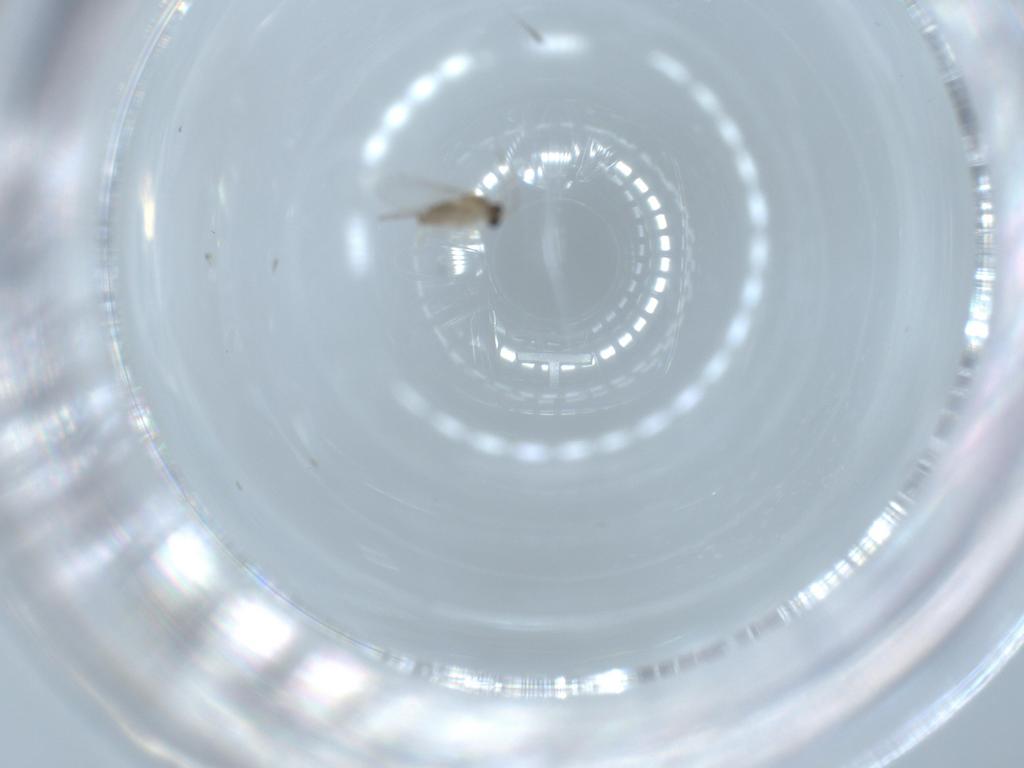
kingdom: Animalia
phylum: Arthropoda
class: Insecta
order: Diptera
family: Cecidomyiidae
